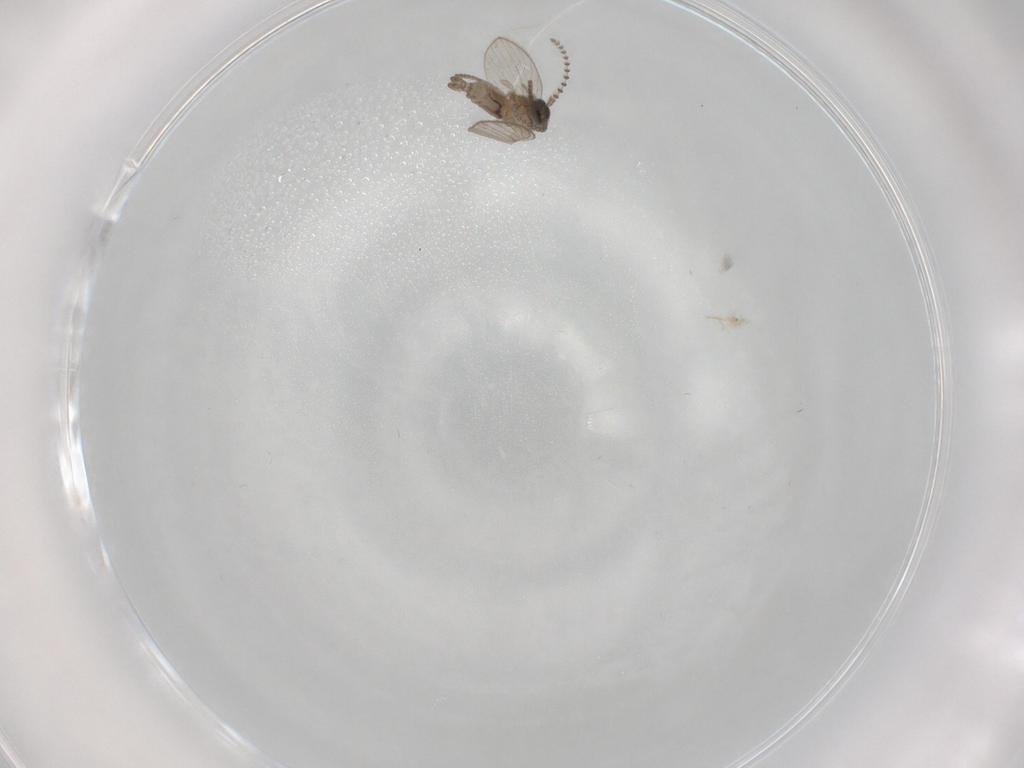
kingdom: Animalia
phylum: Arthropoda
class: Insecta
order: Diptera
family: Psychodidae
